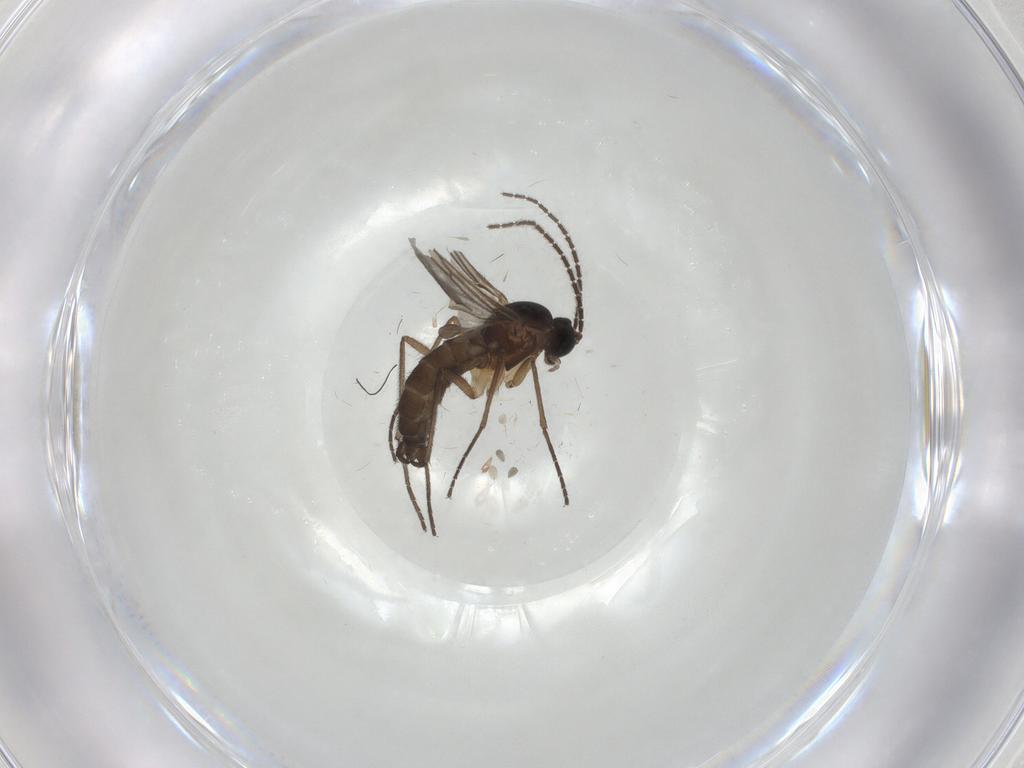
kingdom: Animalia
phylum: Arthropoda
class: Insecta
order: Diptera
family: Sciaridae
